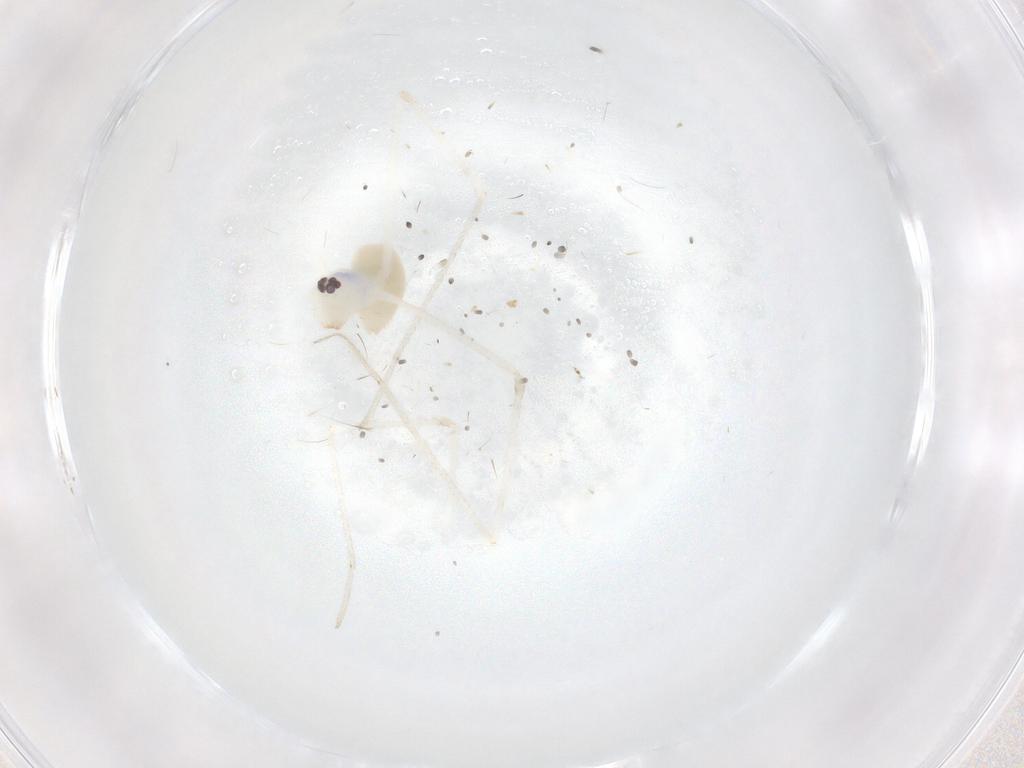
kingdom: Animalia
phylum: Arthropoda
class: Arachnida
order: Araneae
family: Pholcidae
